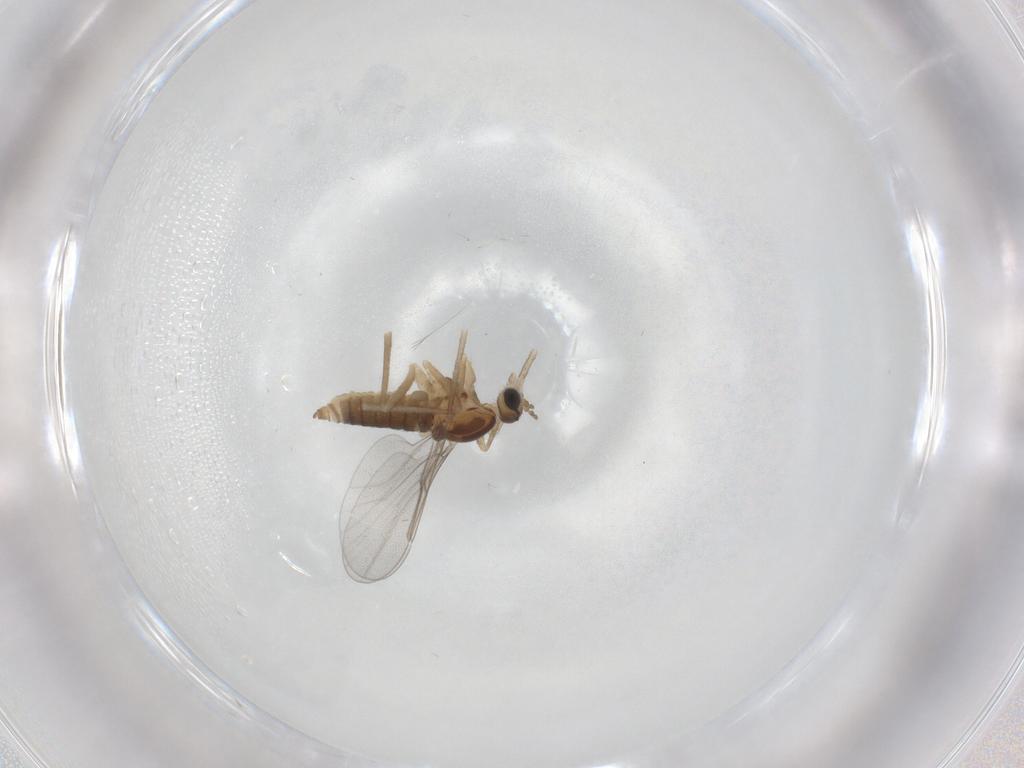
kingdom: Animalia
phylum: Arthropoda
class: Insecta
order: Diptera
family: Cecidomyiidae
